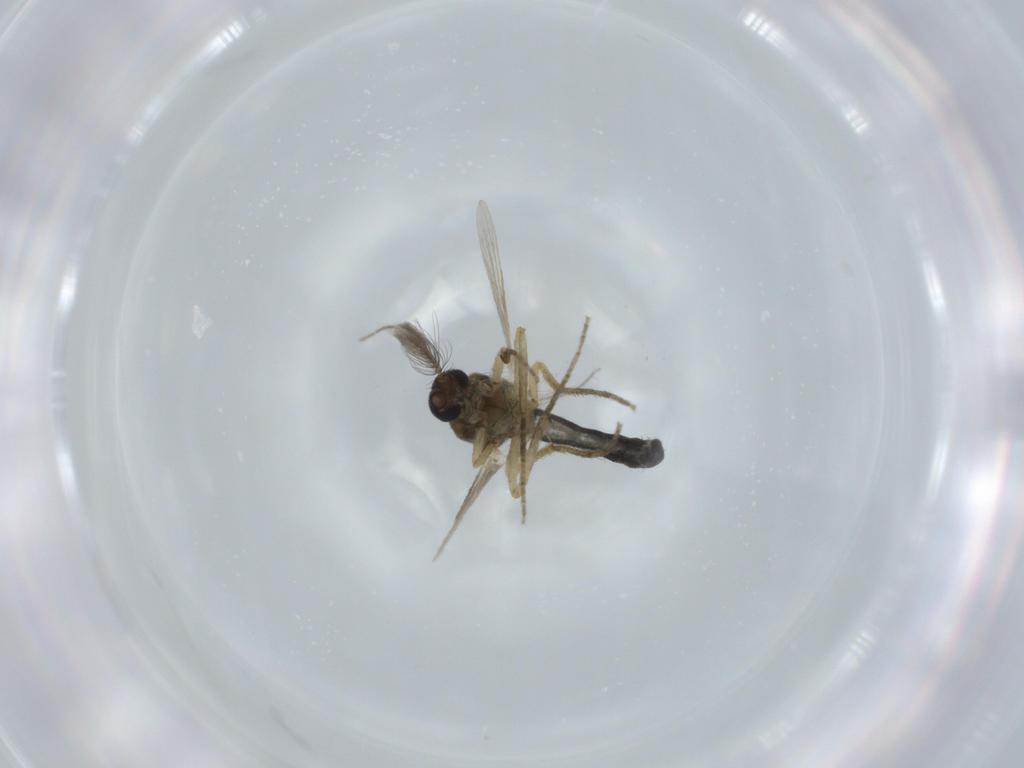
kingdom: Animalia
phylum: Arthropoda
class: Insecta
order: Diptera
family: Ceratopogonidae
